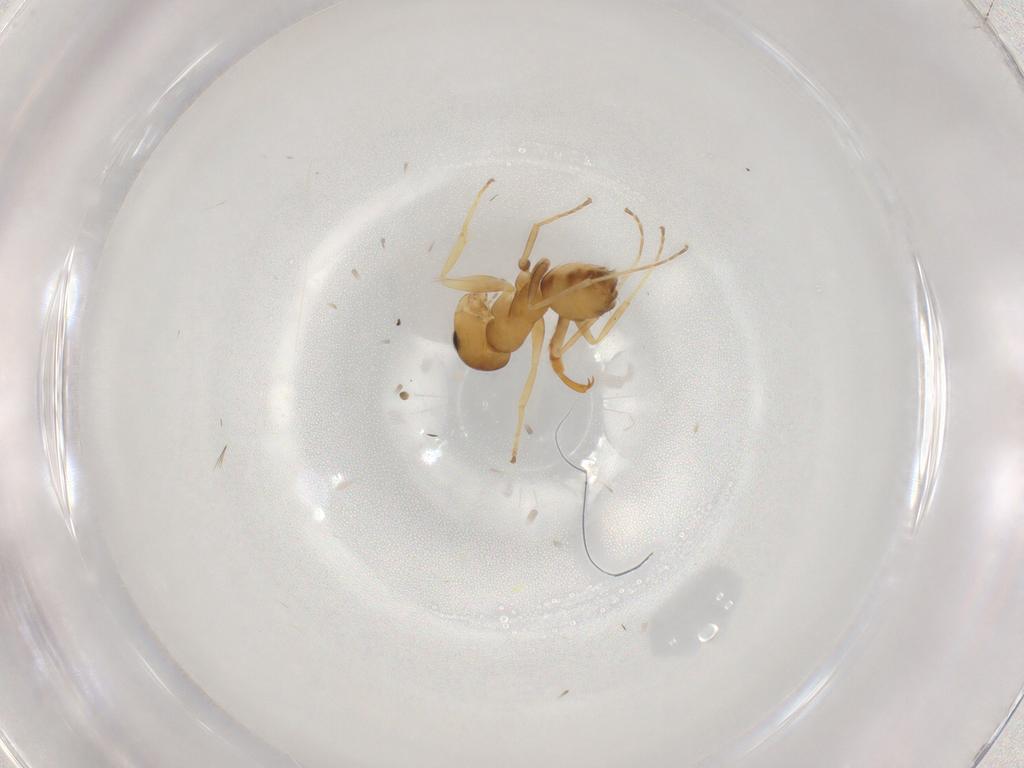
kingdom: Animalia
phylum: Arthropoda
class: Insecta
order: Hymenoptera
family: Formicidae
